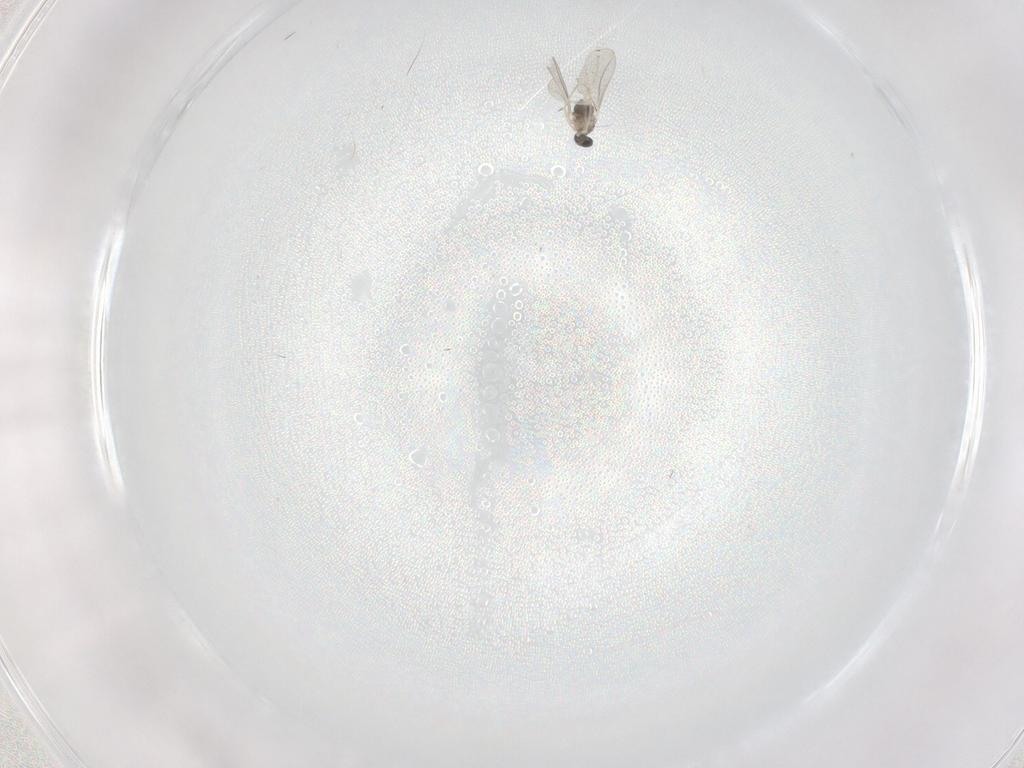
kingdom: Animalia
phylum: Arthropoda
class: Insecta
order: Diptera
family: Cecidomyiidae
